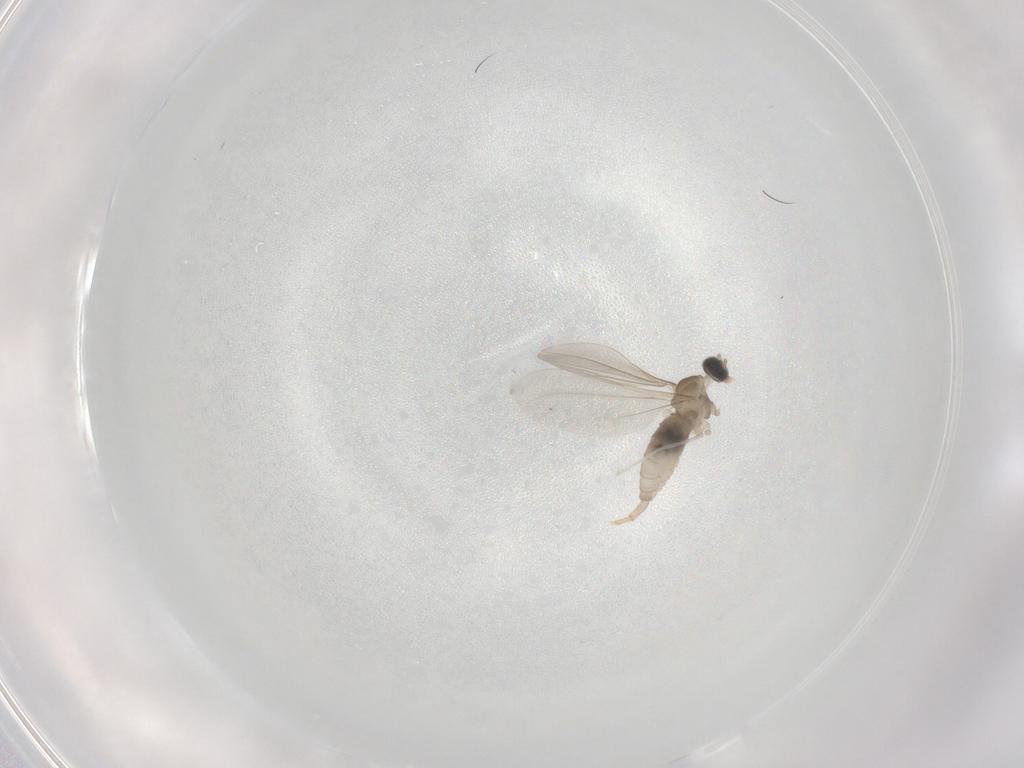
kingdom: Animalia
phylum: Arthropoda
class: Insecta
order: Diptera
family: Cecidomyiidae
